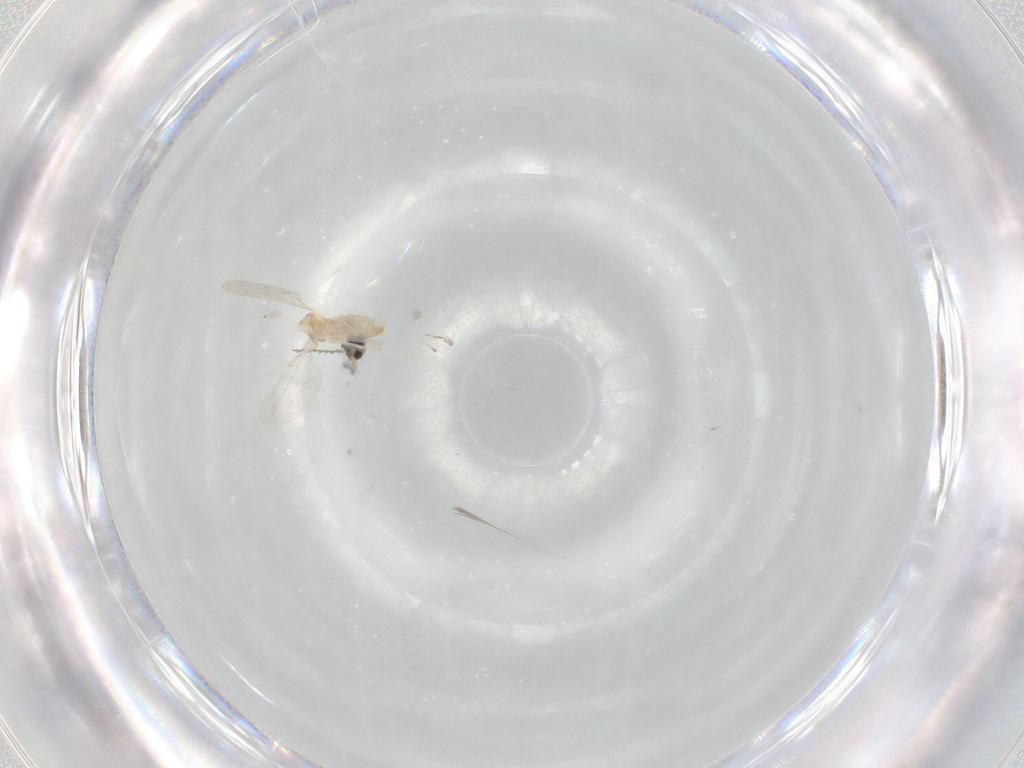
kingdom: Animalia
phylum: Arthropoda
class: Insecta
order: Diptera
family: Cecidomyiidae
